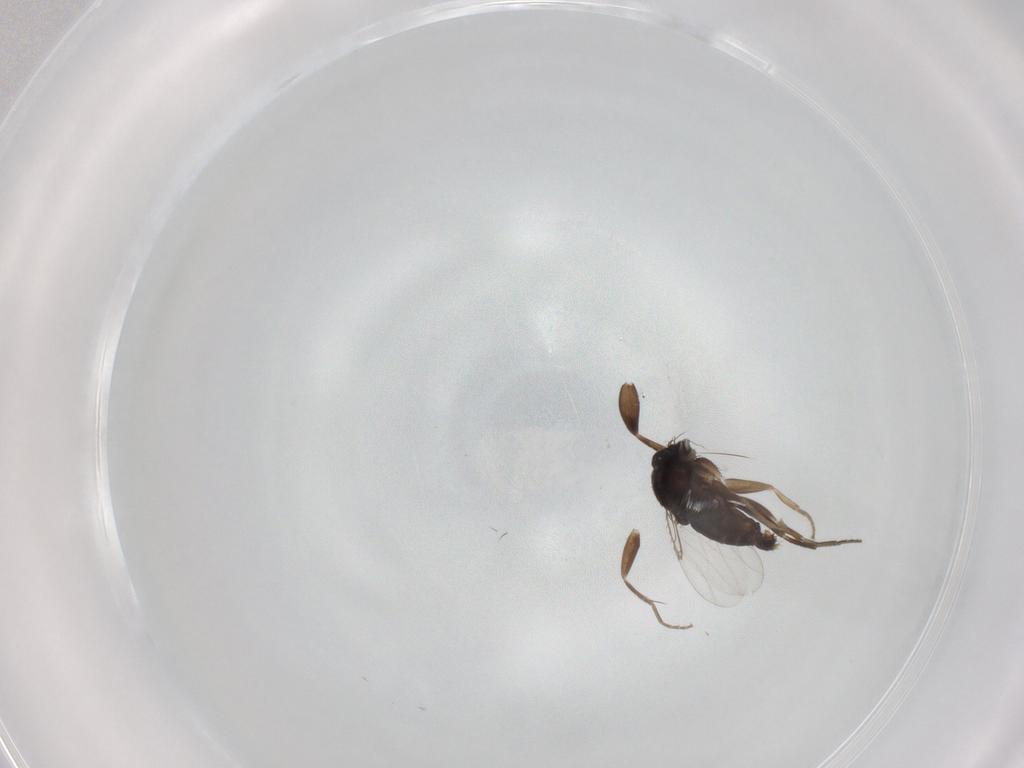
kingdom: Animalia
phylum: Arthropoda
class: Insecta
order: Diptera
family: Phoridae
